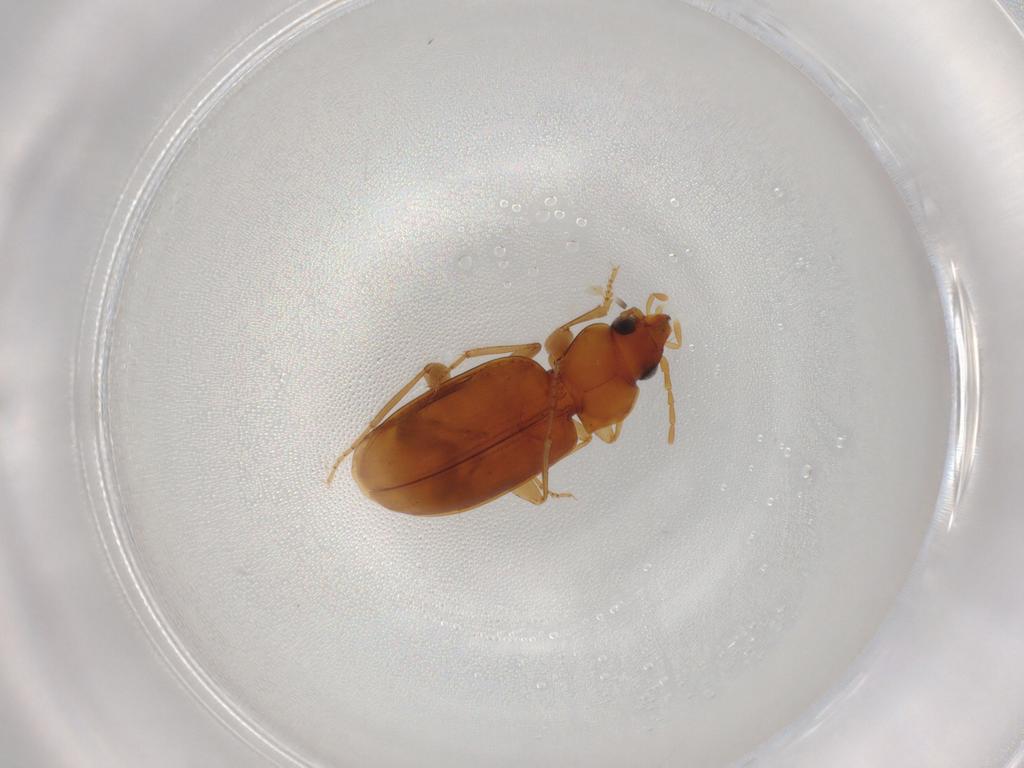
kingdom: Animalia
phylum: Arthropoda
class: Insecta
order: Coleoptera
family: Carabidae
